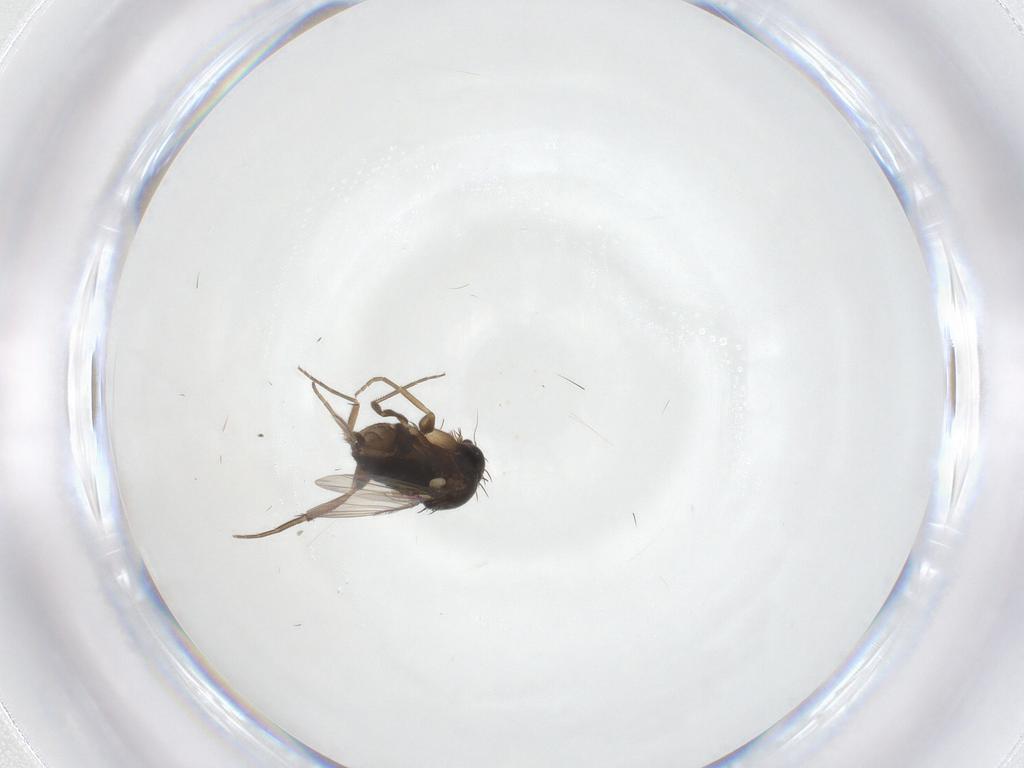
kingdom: Animalia
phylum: Arthropoda
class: Insecta
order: Diptera
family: Phoridae
